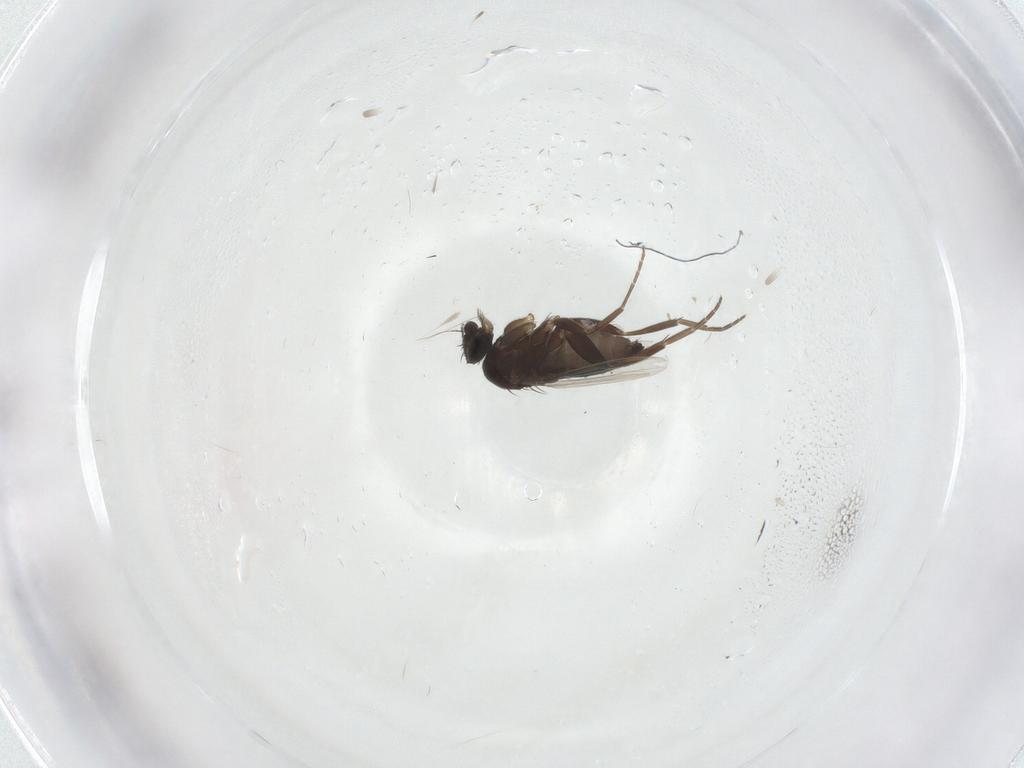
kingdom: Animalia
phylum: Arthropoda
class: Insecta
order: Diptera
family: Phoridae
